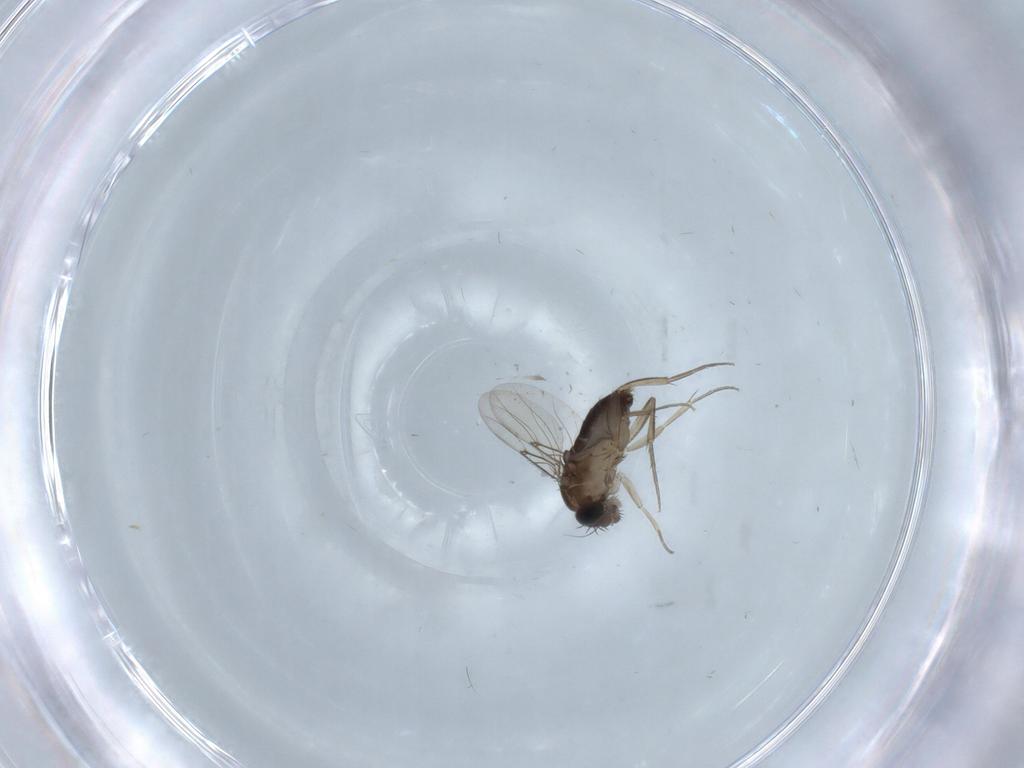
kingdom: Animalia
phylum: Arthropoda
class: Insecta
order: Diptera
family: Phoridae
